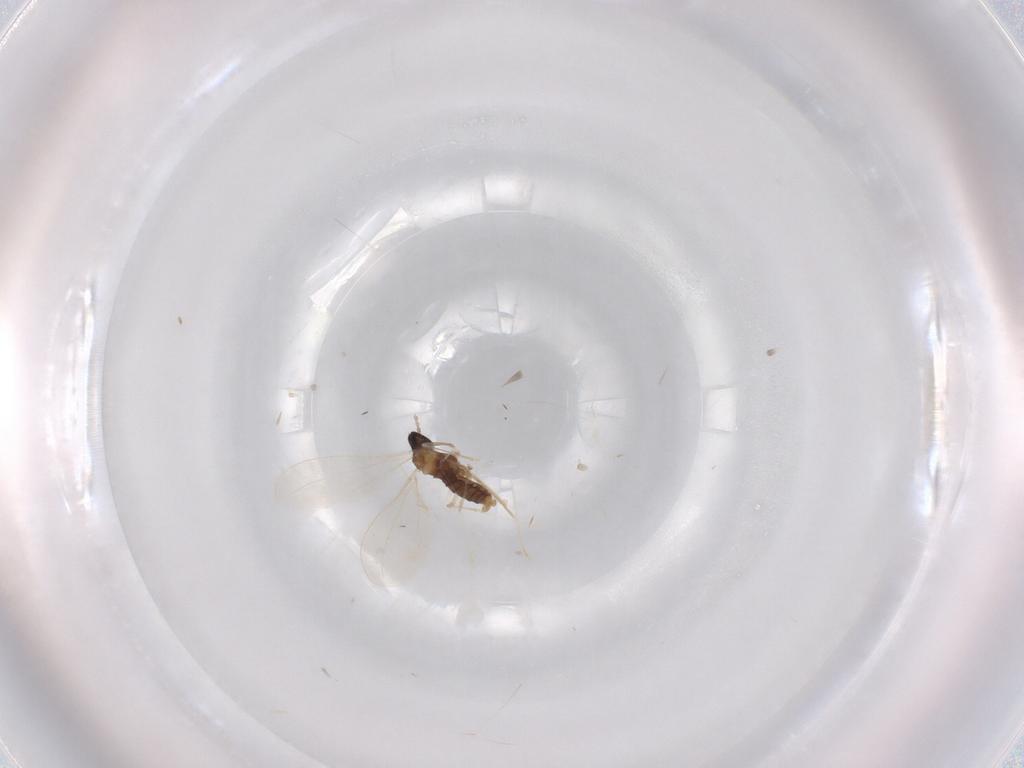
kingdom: Animalia
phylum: Arthropoda
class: Insecta
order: Diptera
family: Cecidomyiidae
